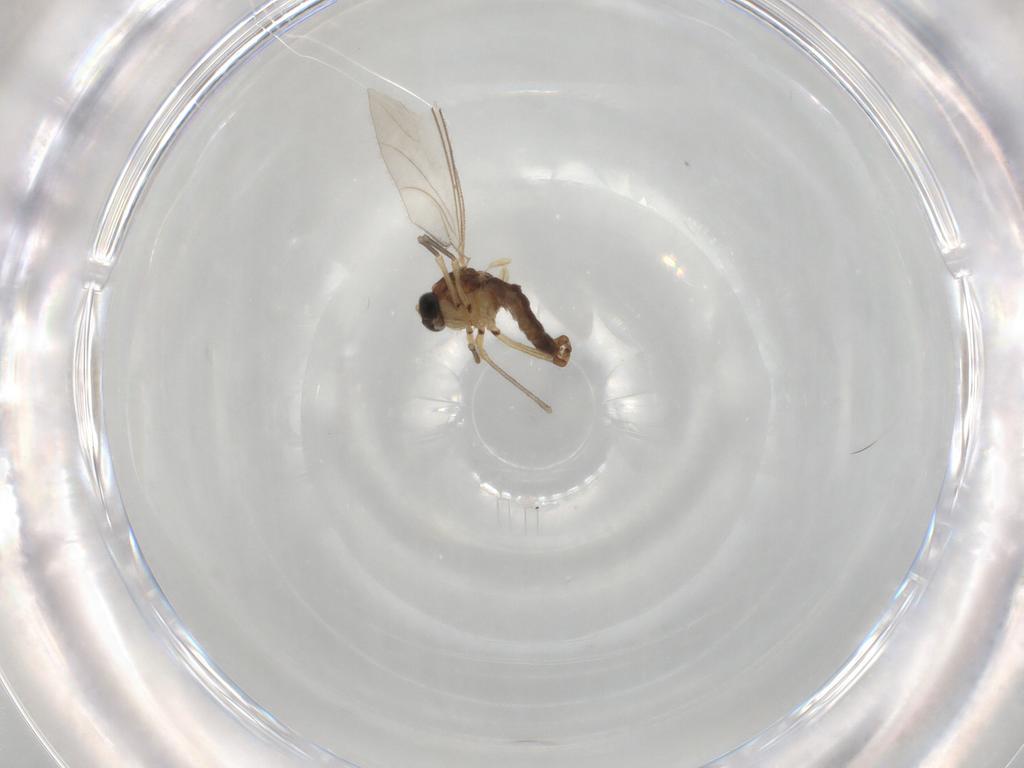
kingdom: Animalia
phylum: Arthropoda
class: Insecta
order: Diptera
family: Sciaridae
